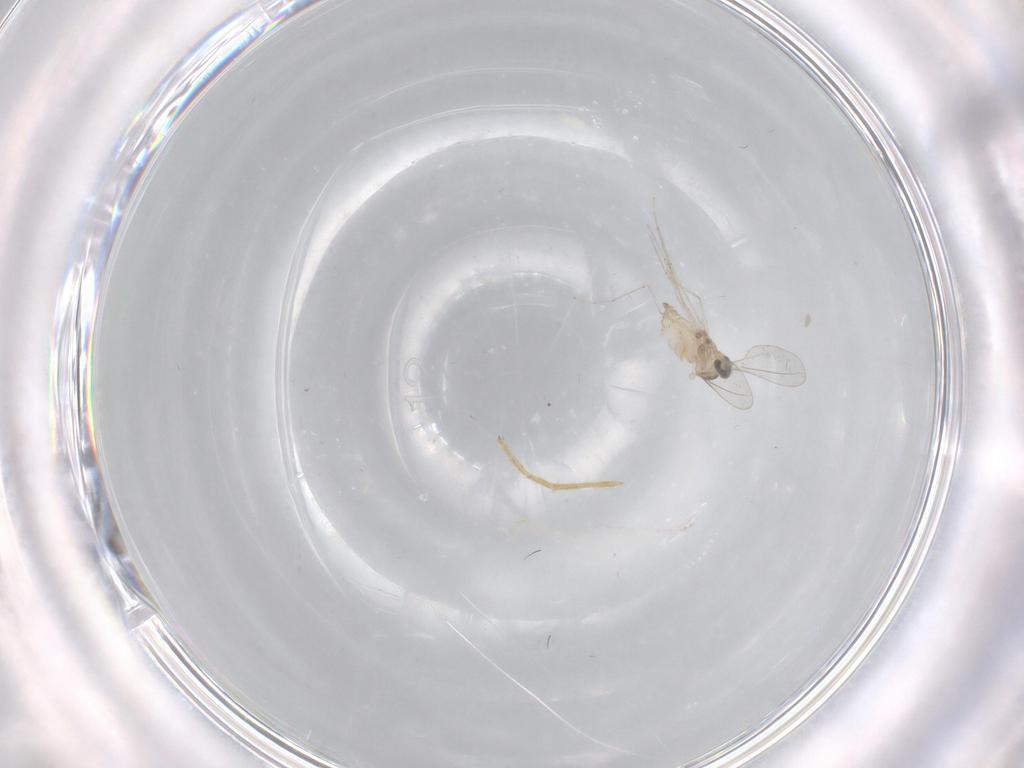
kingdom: Animalia
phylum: Arthropoda
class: Insecta
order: Diptera
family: Cecidomyiidae
